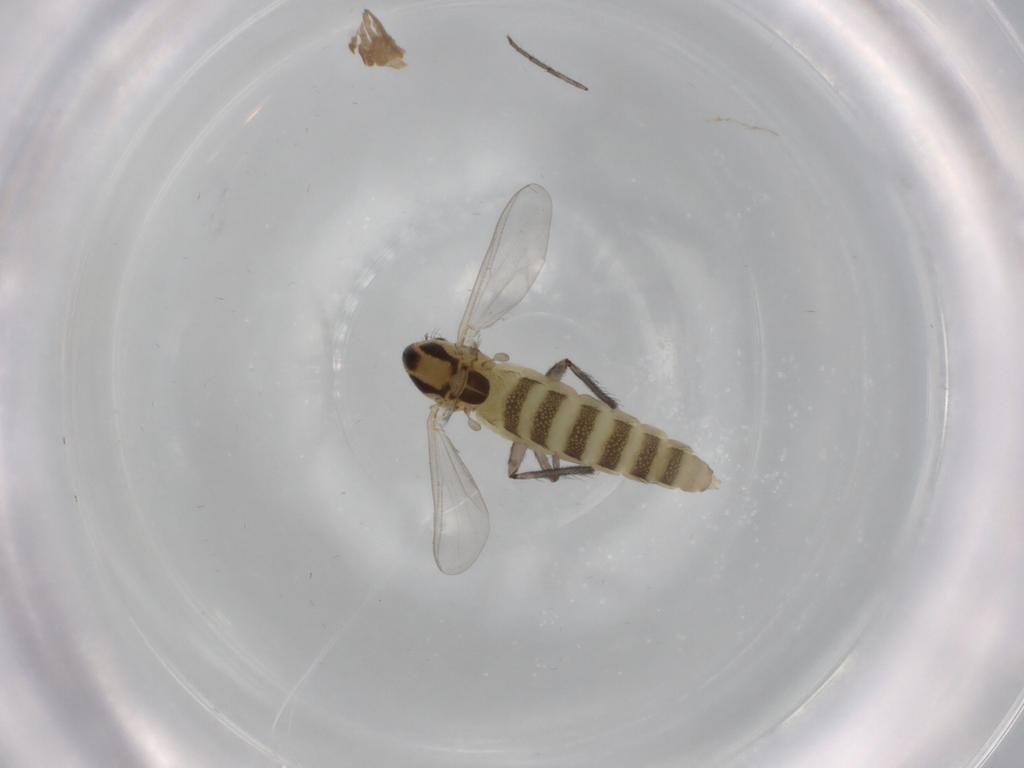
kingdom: Animalia
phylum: Arthropoda
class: Insecta
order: Diptera
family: Chironomidae
